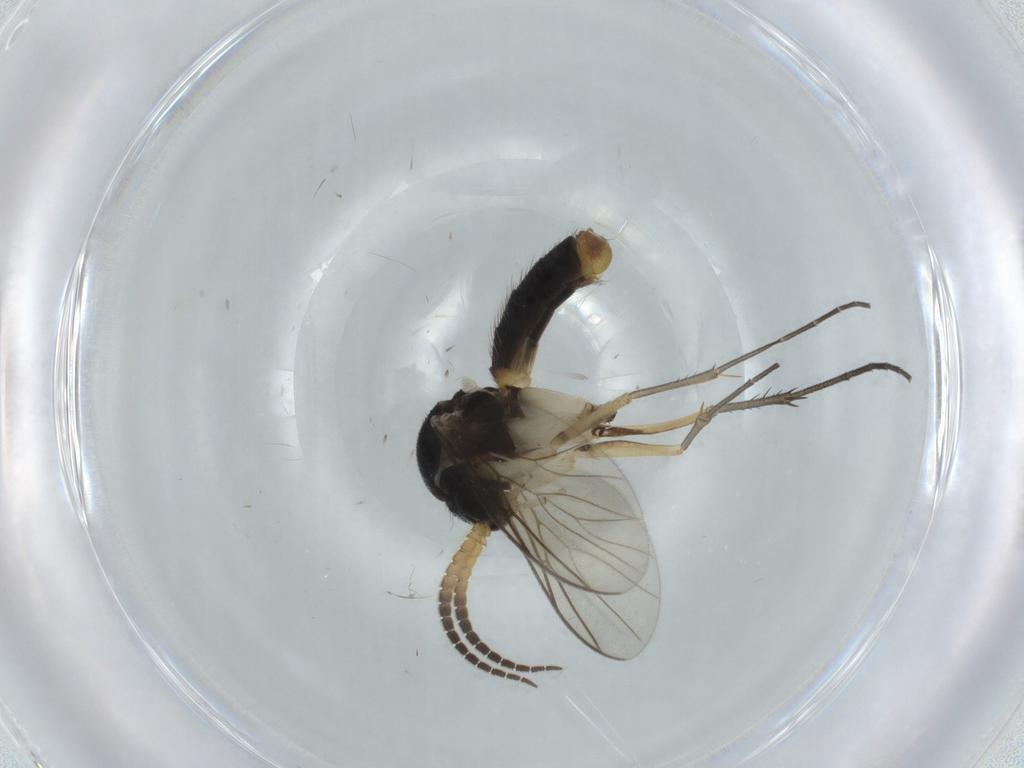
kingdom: Animalia
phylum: Arthropoda
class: Insecta
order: Diptera
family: Mycetophilidae
